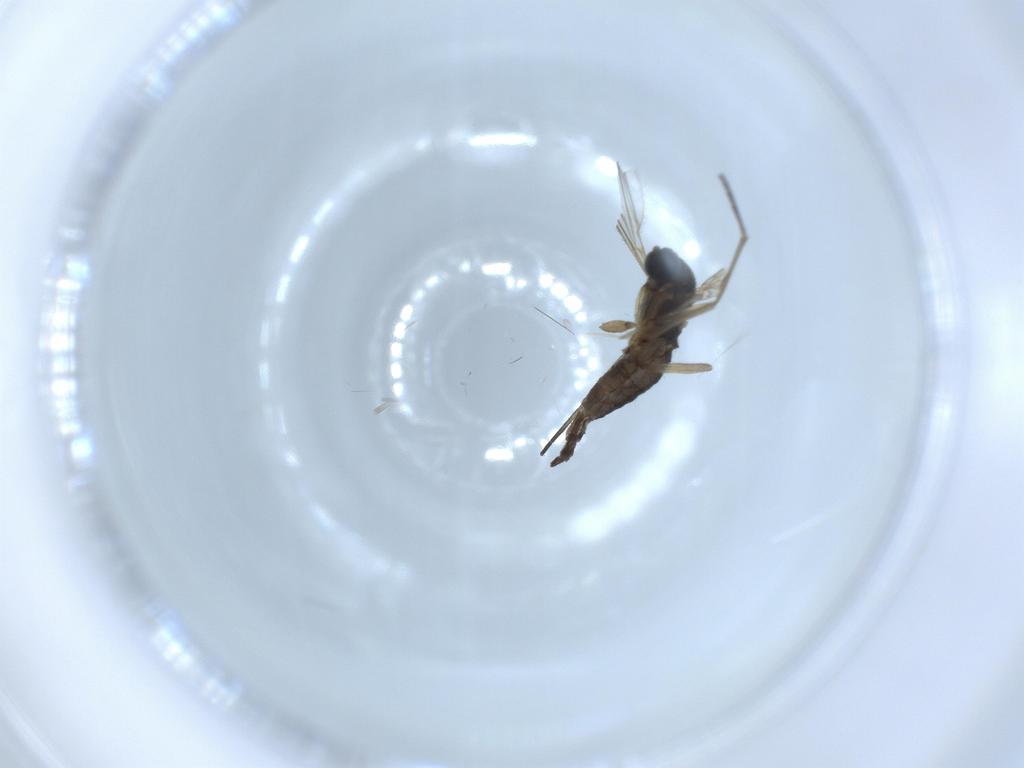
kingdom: Animalia
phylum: Arthropoda
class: Insecta
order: Diptera
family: Sciaridae
